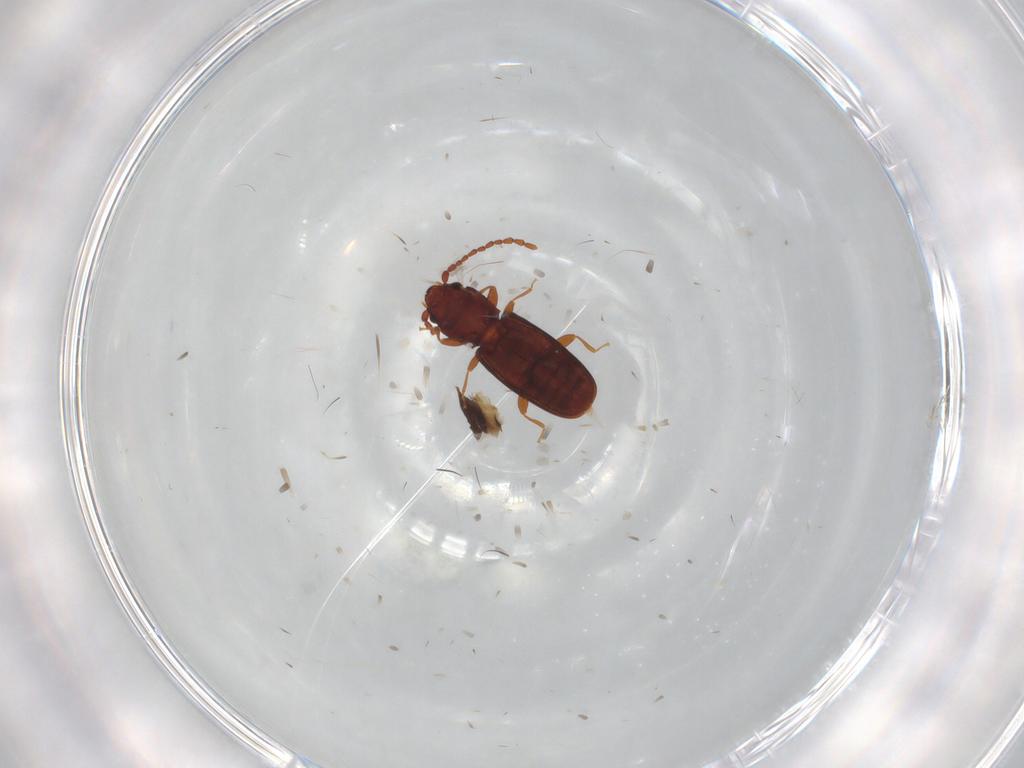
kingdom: Animalia
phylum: Arthropoda
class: Insecta
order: Coleoptera
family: Laemophloeidae
